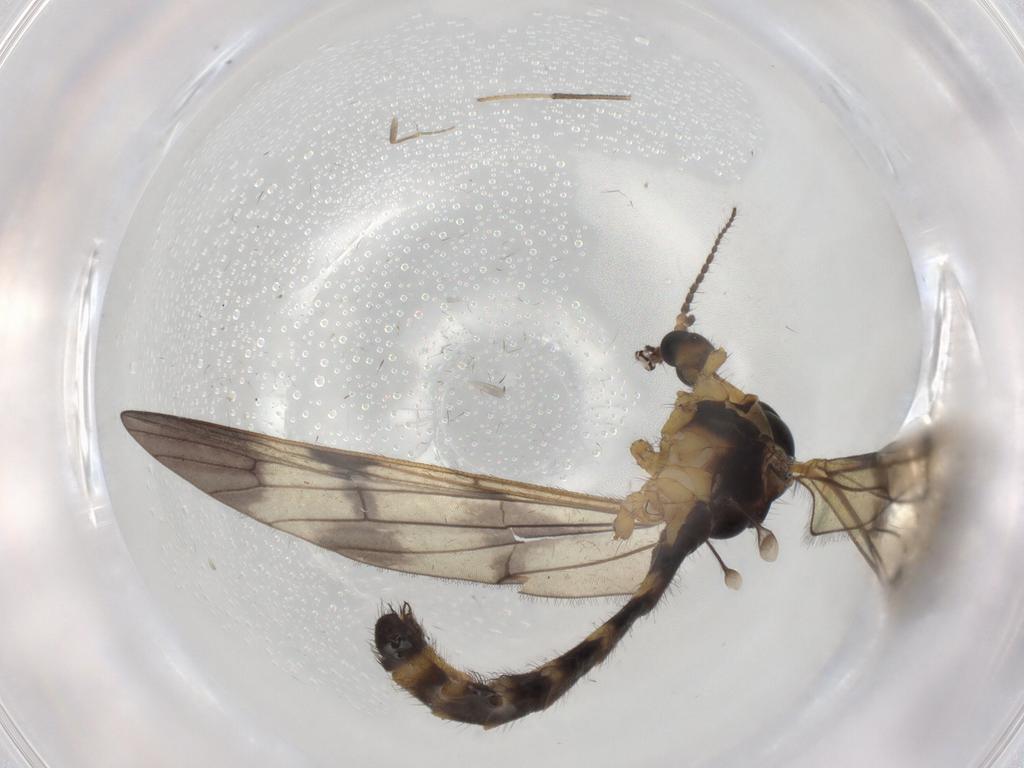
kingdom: Animalia
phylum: Arthropoda
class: Insecta
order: Diptera
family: Limoniidae
